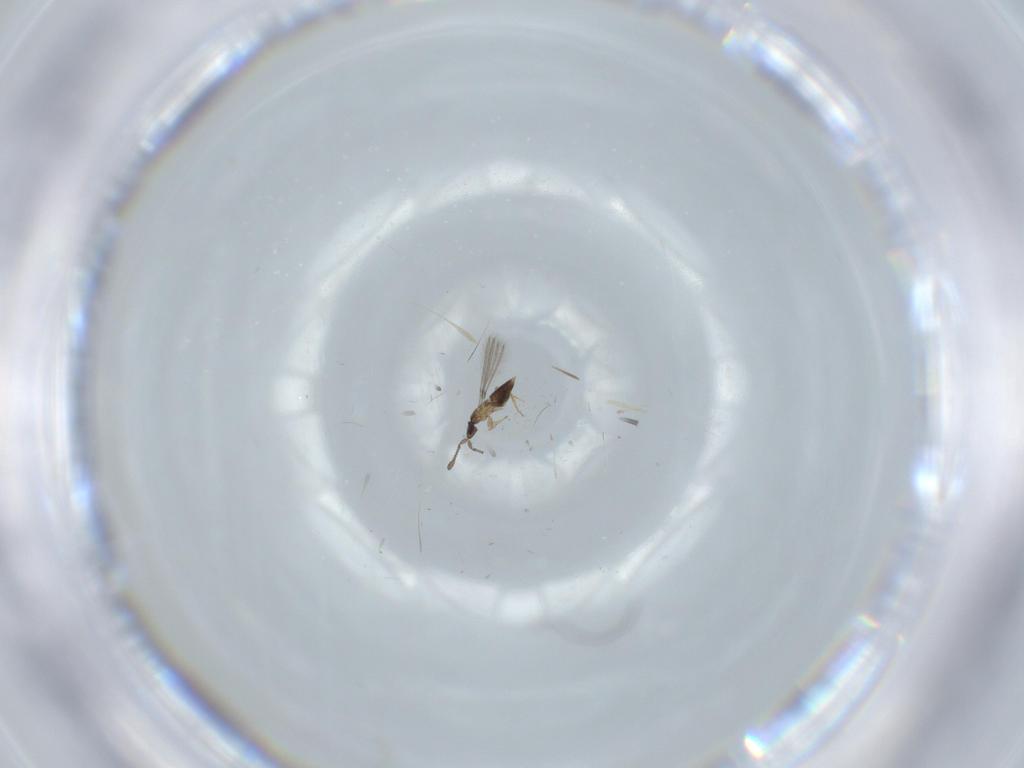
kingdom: Animalia
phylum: Arthropoda
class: Insecta
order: Hymenoptera
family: Mymaridae
